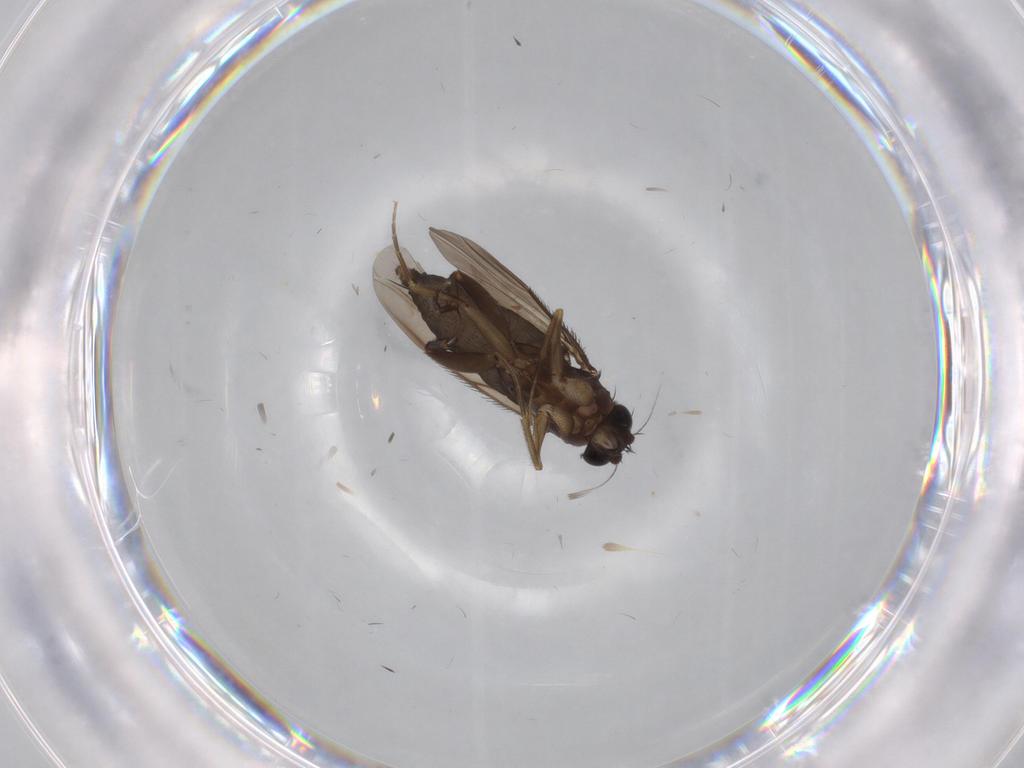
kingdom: Animalia
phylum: Arthropoda
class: Insecta
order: Diptera
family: Phoridae
